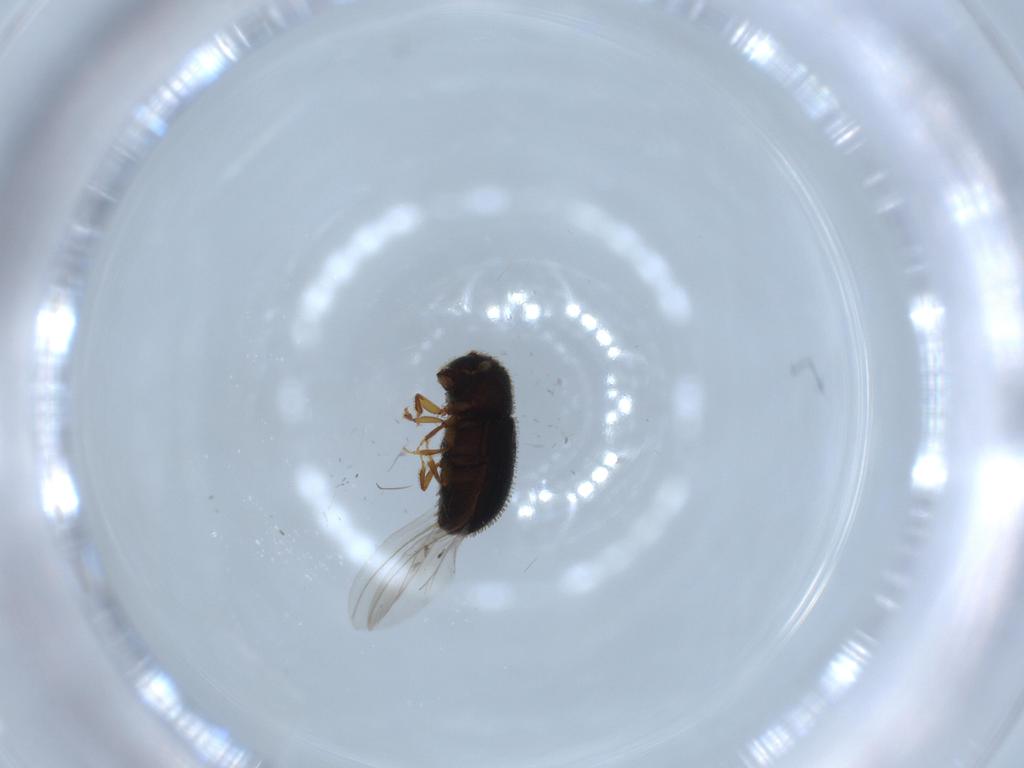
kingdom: Animalia
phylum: Arthropoda
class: Insecta
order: Coleoptera
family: Curculionidae
